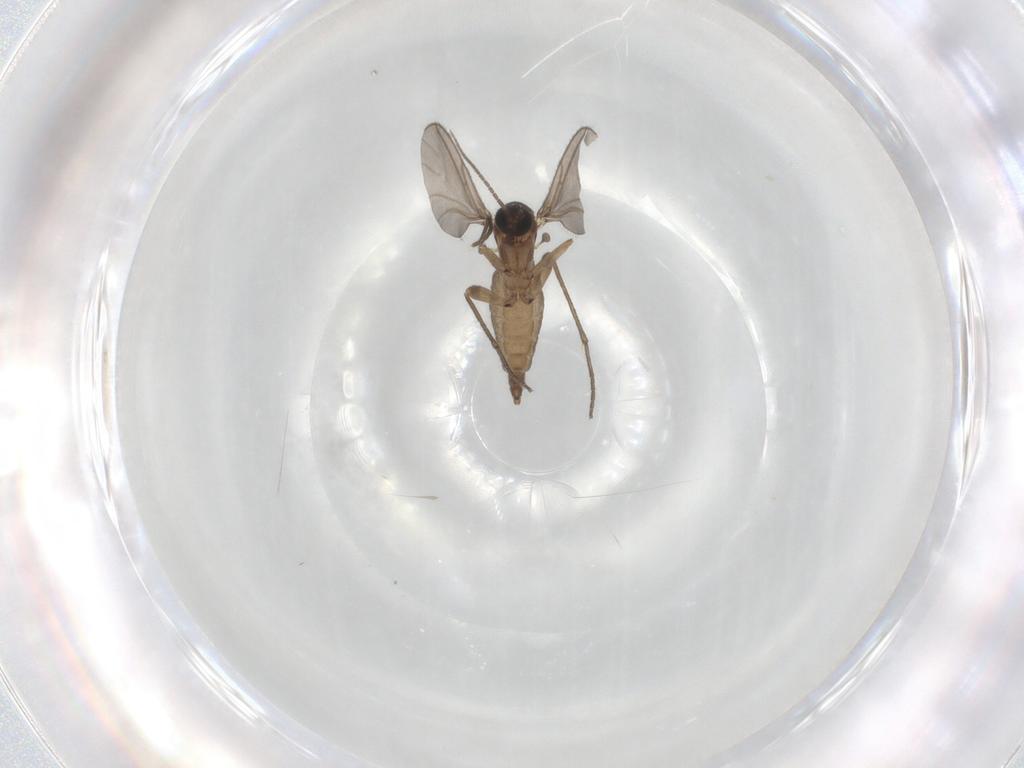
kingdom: Animalia
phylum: Arthropoda
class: Insecta
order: Diptera
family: Sciaridae
